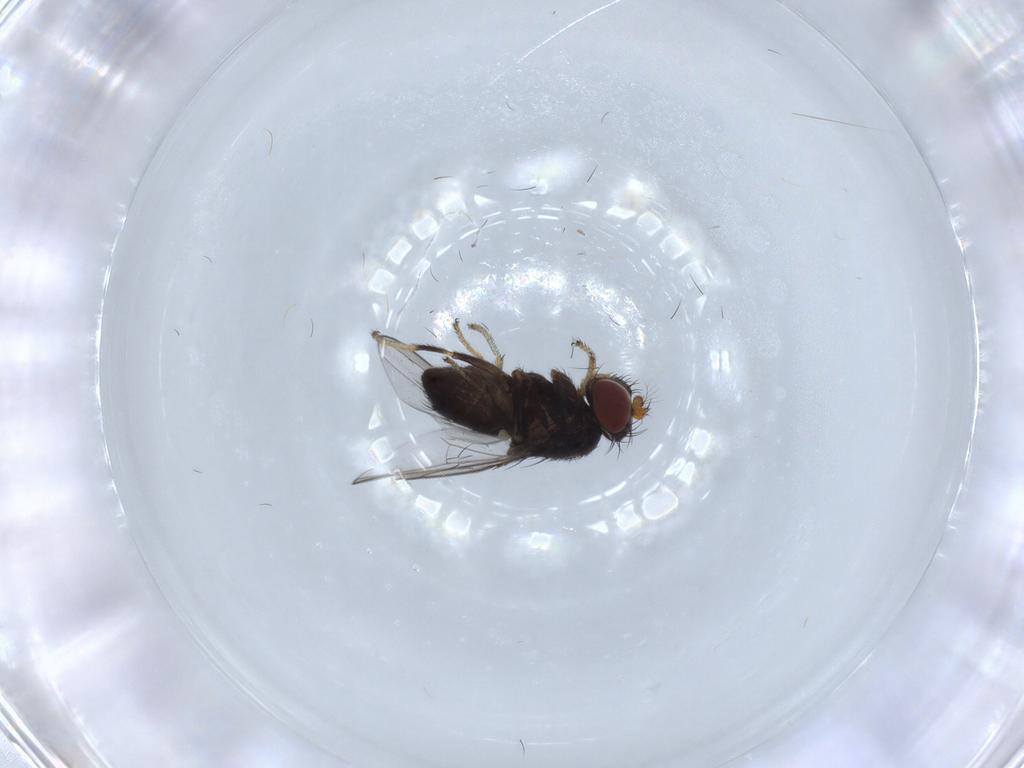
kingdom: Animalia
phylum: Arthropoda
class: Insecta
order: Diptera
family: Ephydridae
